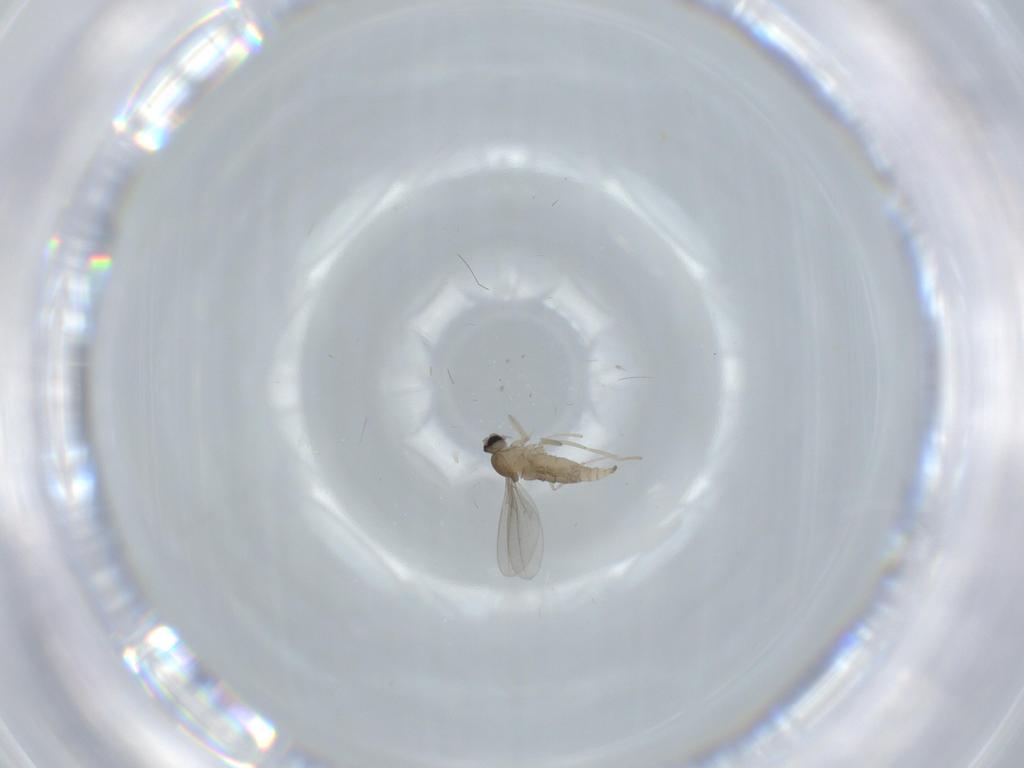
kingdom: Animalia
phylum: Arthropoda
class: Insecta
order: Diptera
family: Cecidomyiidae
